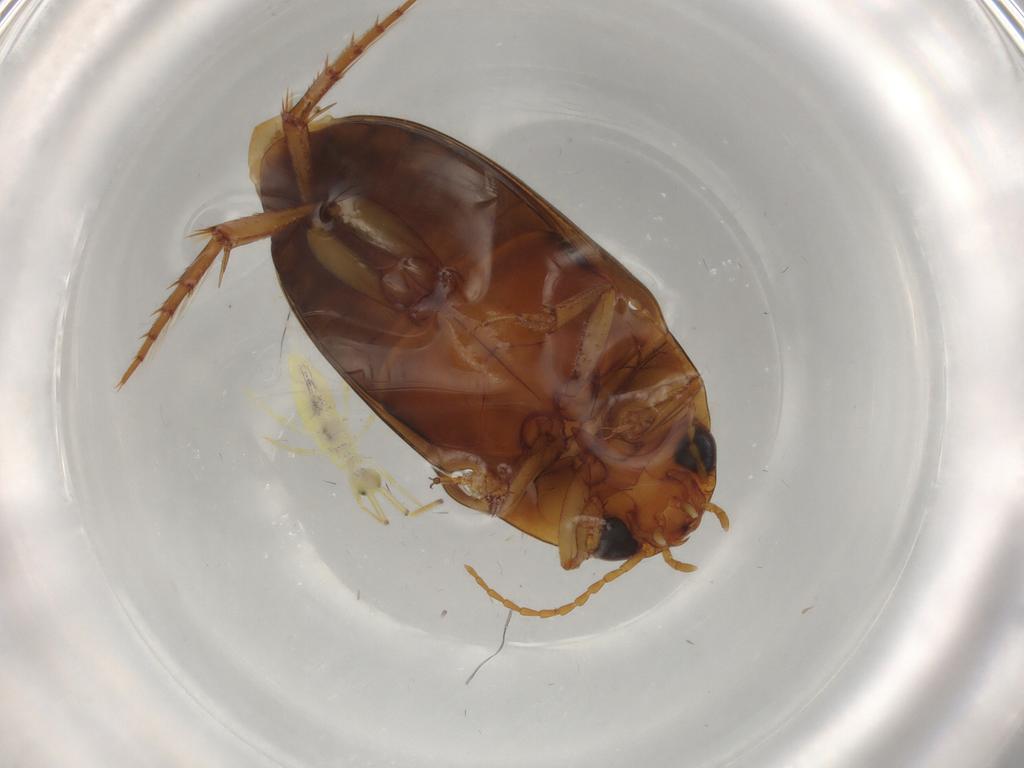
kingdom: Animalia
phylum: Arthropoda
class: Insecta
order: Coleoptera
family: Dytiscidae
